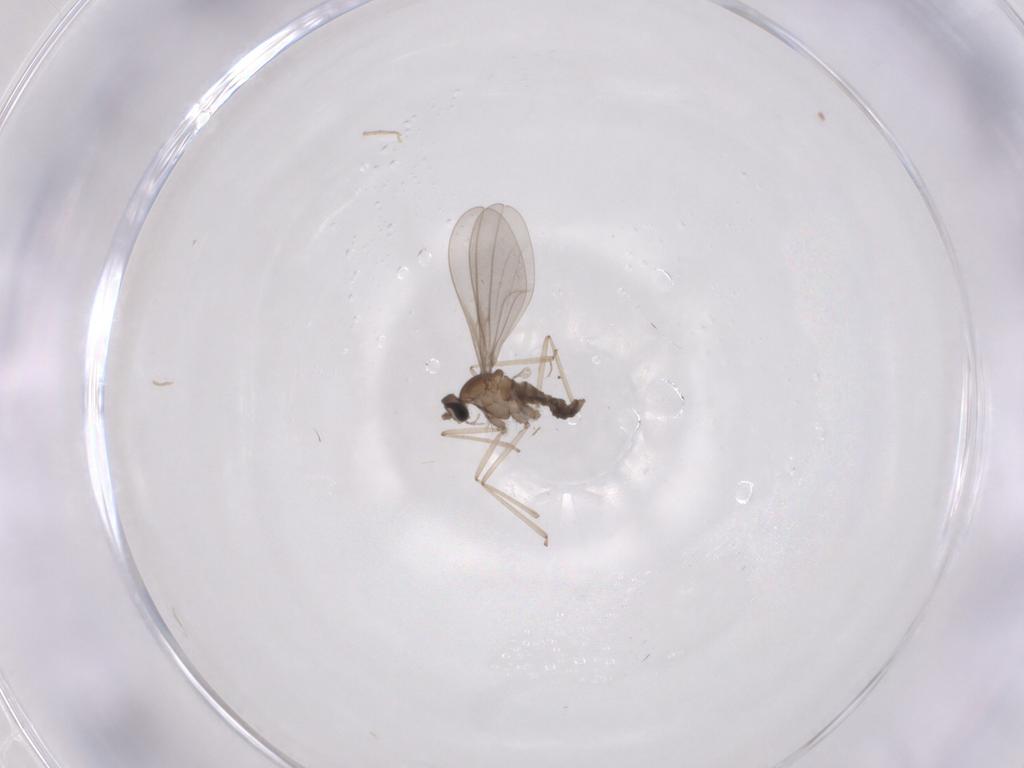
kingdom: Animalia
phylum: Arthropoda
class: Insecta
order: Diptera
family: Cecidomyiidae
